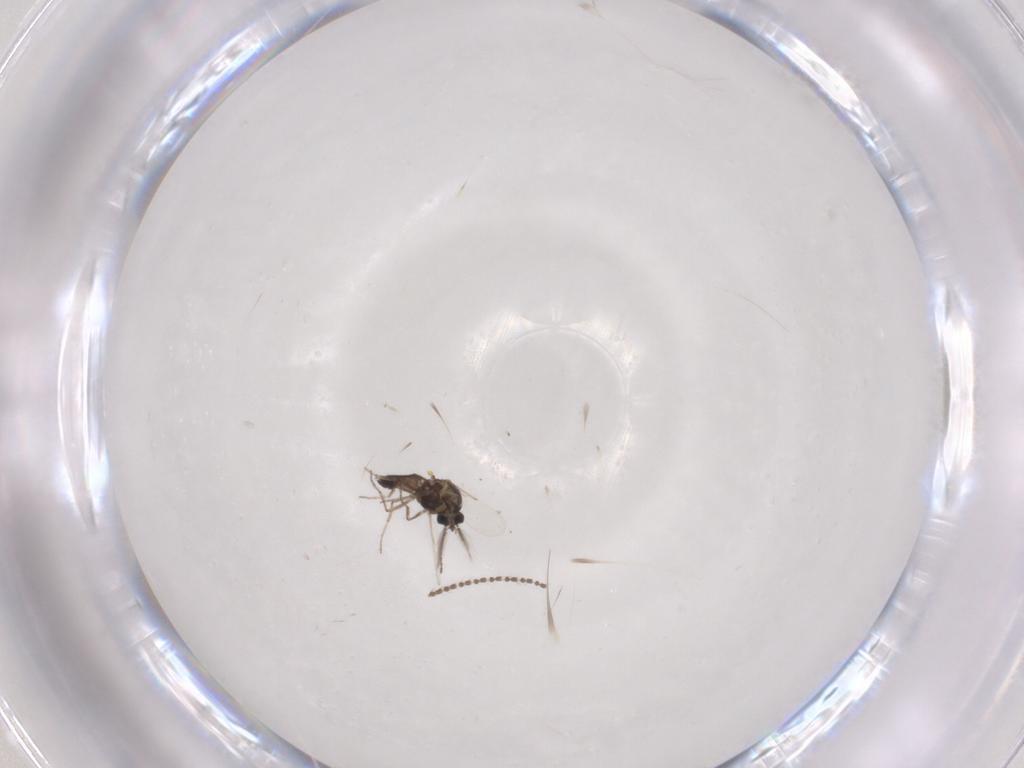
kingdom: Animalia
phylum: Arthropoda
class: Insecta
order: Diptera
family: Ceratopogonidae
